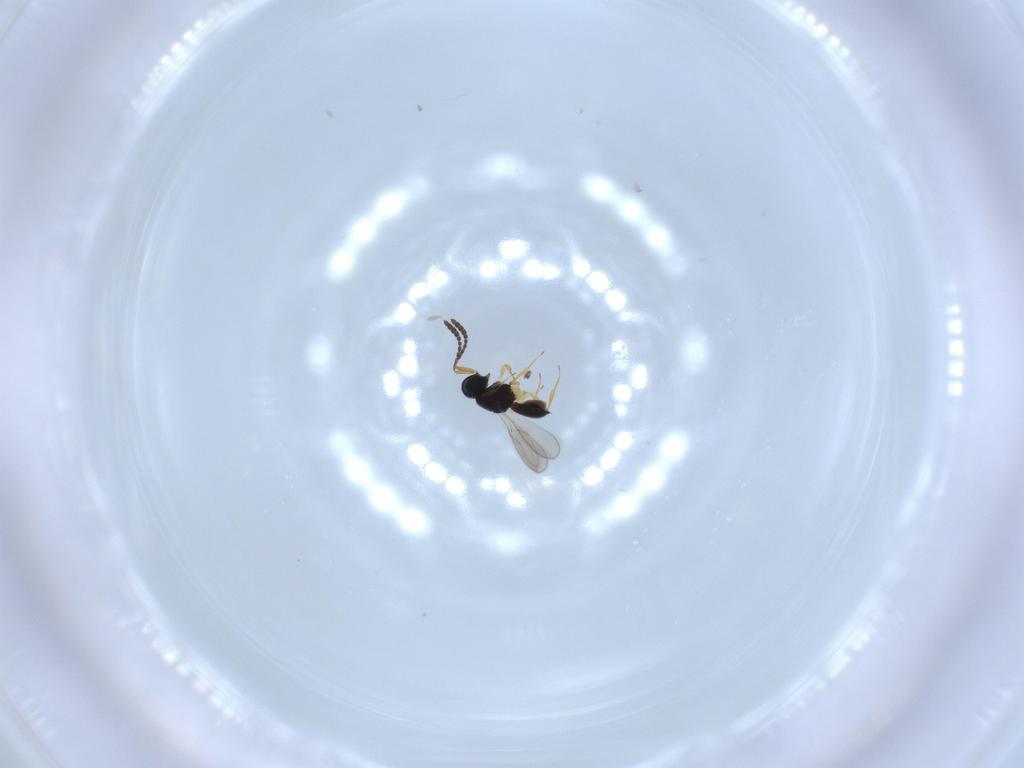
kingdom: Animalia
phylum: Arthropoda
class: Insecta
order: Hymenoptera
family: Scelionidae
